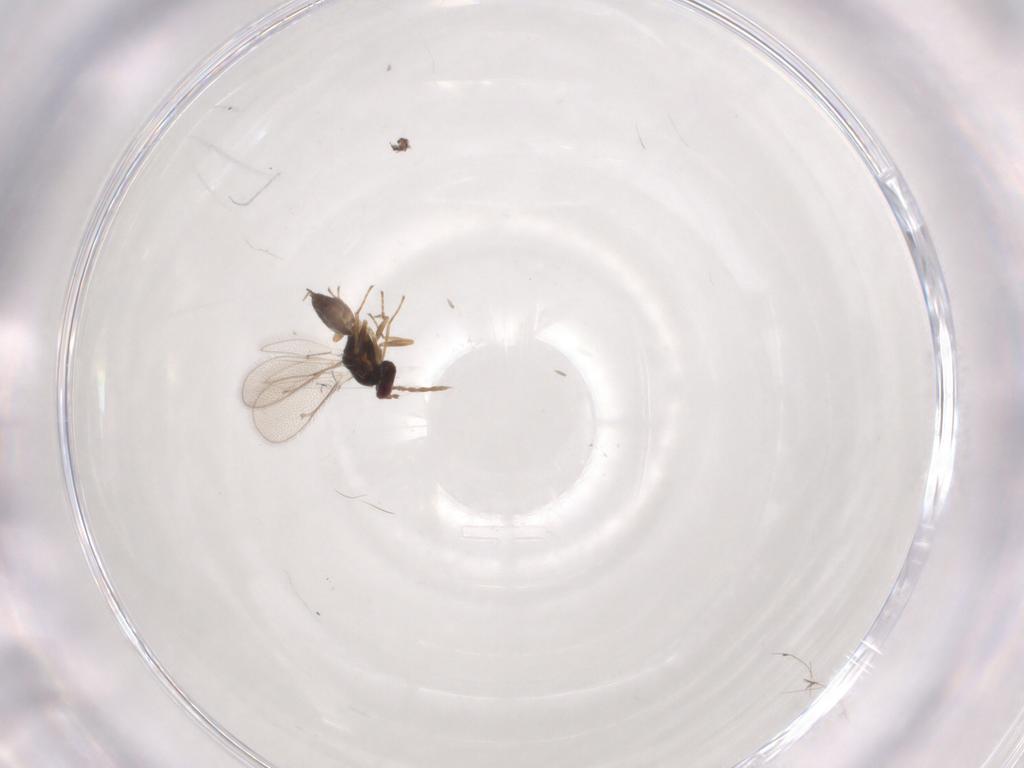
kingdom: Animalia
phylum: Arthropoda
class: Insecta
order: Hymenoptera
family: Eulophidae
